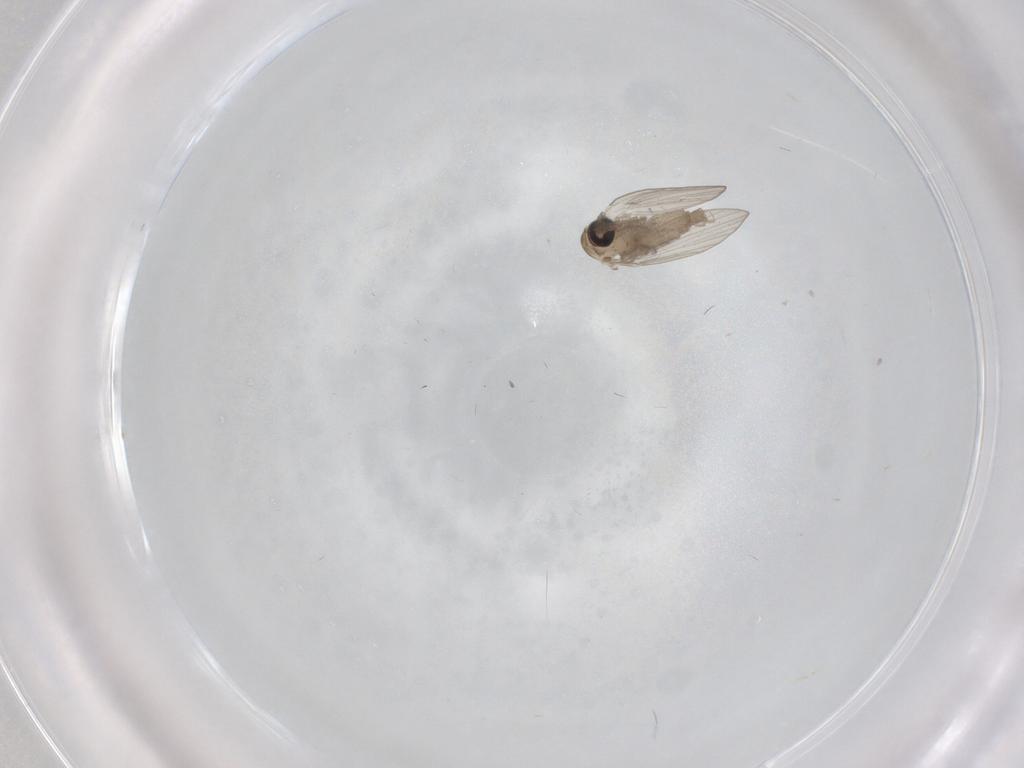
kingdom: Animalia
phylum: Arthropoda
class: Insecta
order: Diptera
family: Psychodidae
